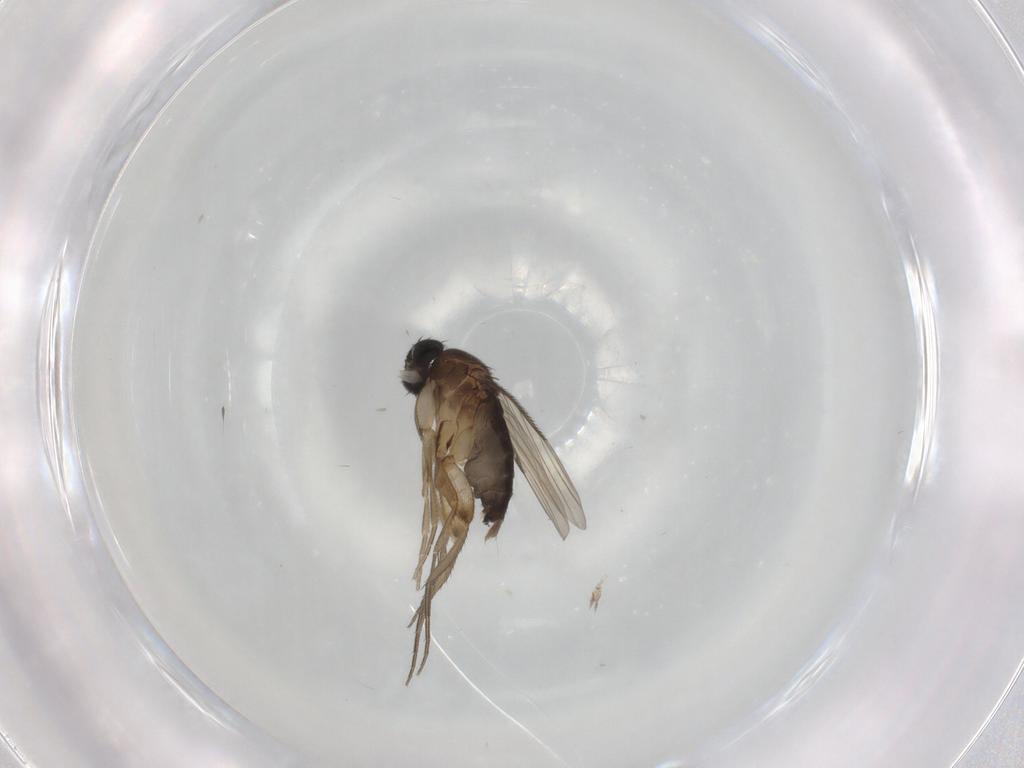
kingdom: Animalia
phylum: Arthropoda
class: Insecta
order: Diptera
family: Phoridae
